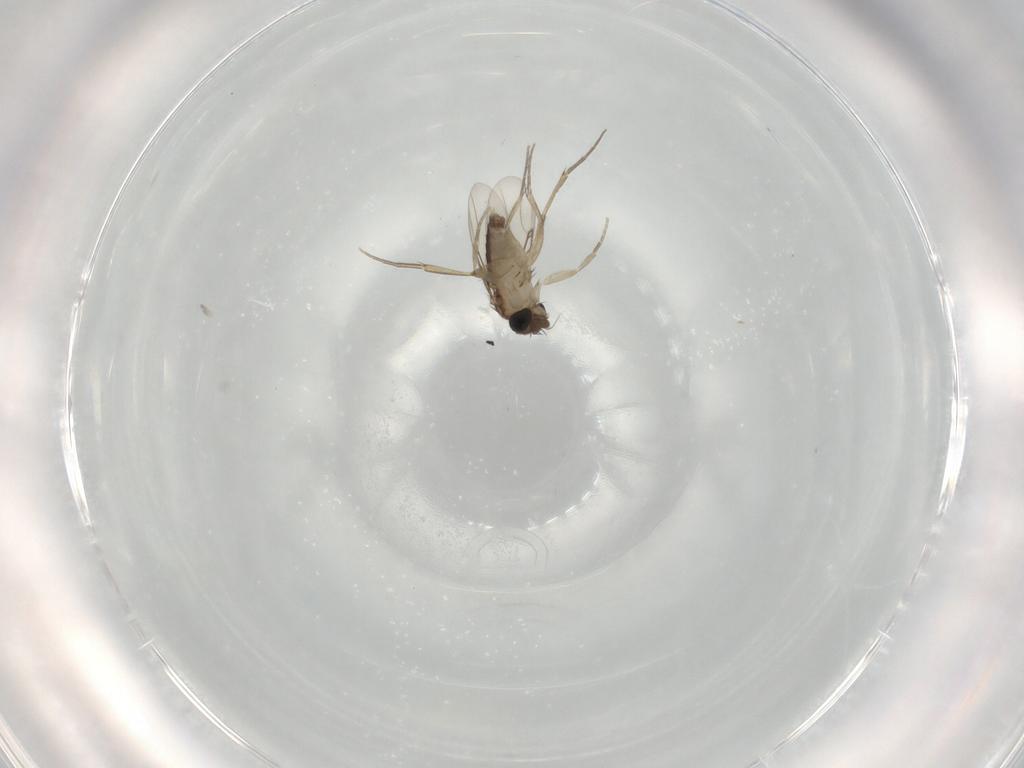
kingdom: Animalia
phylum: Arthropoda
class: Insecta
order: Diptera
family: Phoridae
